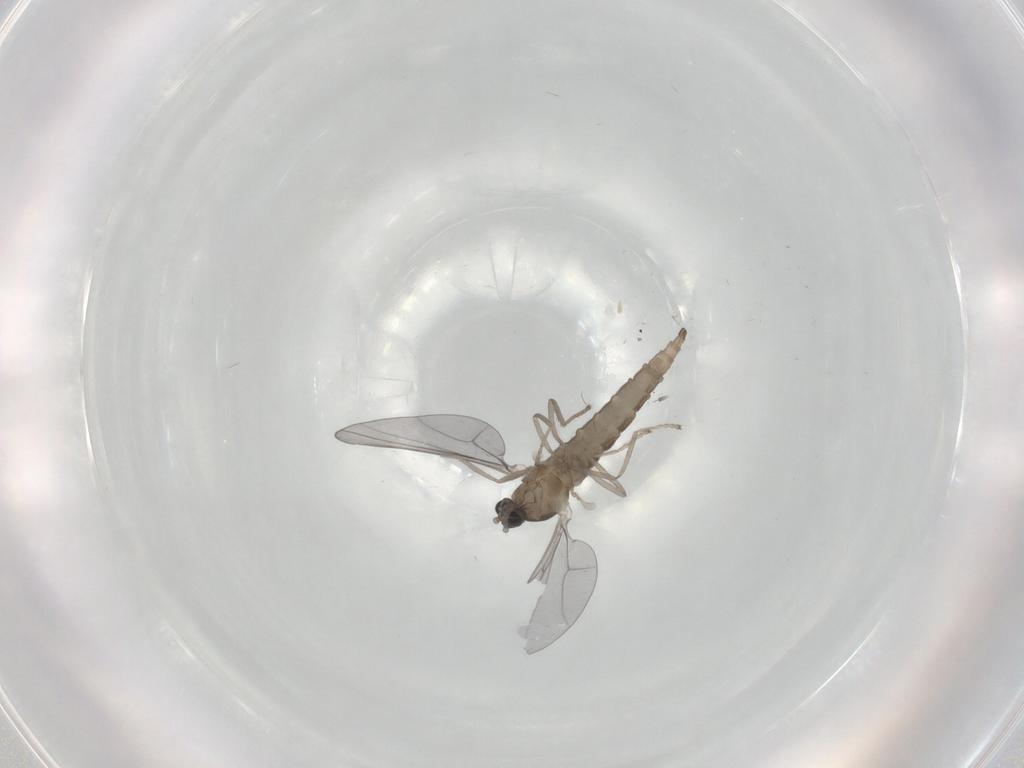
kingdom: Animalia
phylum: Arthropoda
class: Insecta
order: Diptera
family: Cecidomyiidae
